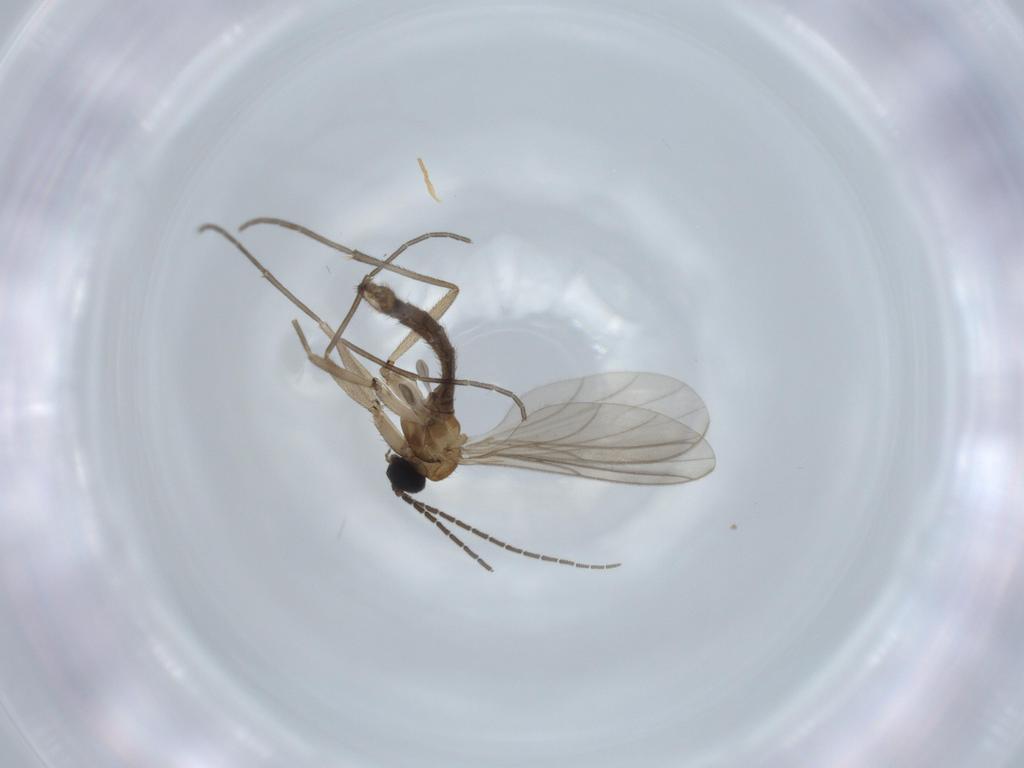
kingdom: Animalia
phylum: Arthropoda
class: Insecta
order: Diptera
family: Sciaridae
